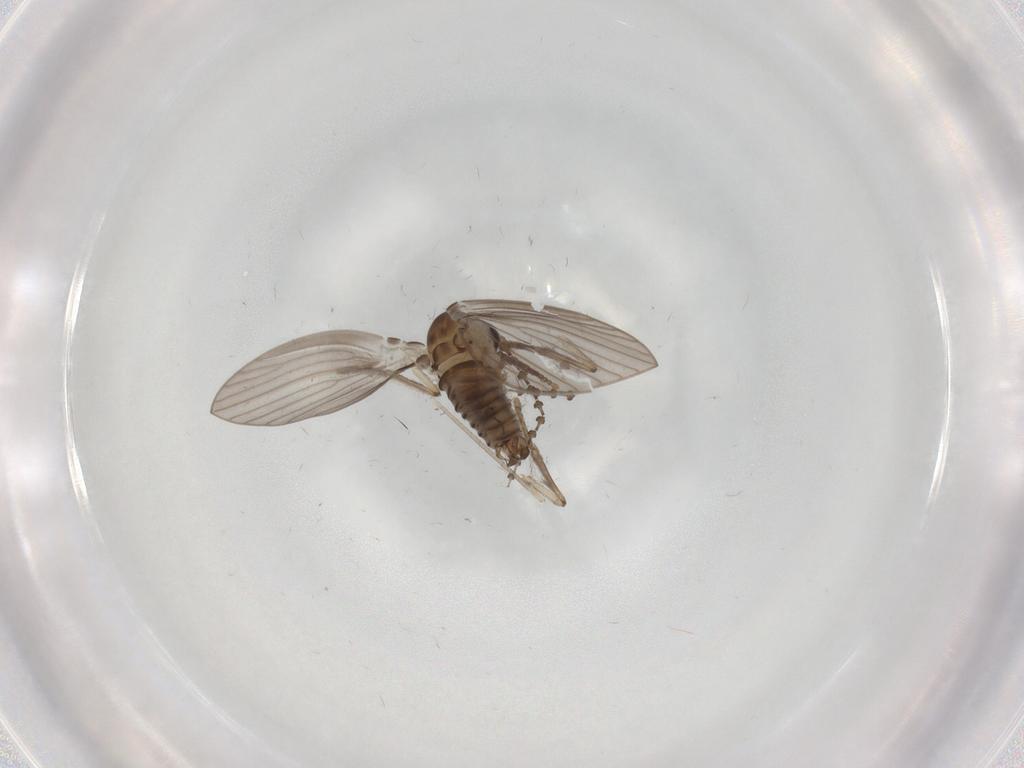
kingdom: Animalia
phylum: Arthropoda
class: Insecta
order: Diptera
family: Psychodidae
